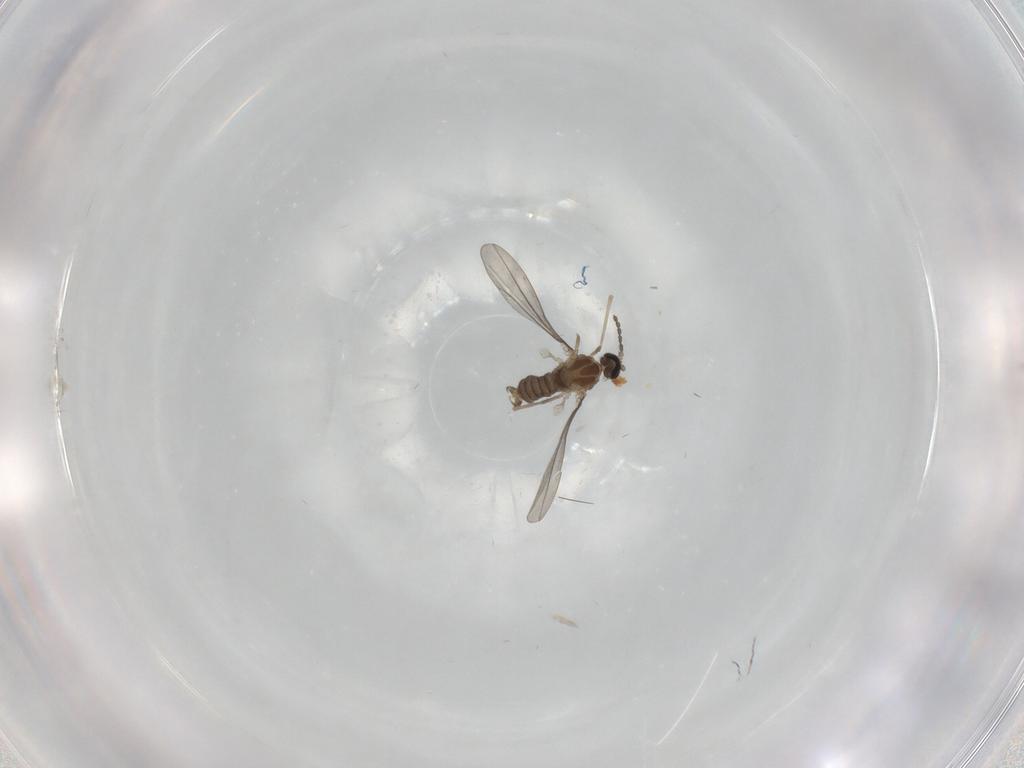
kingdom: Animalia
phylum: Arthropoda
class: Insecta
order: Diptera
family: Cecidomyiidae
